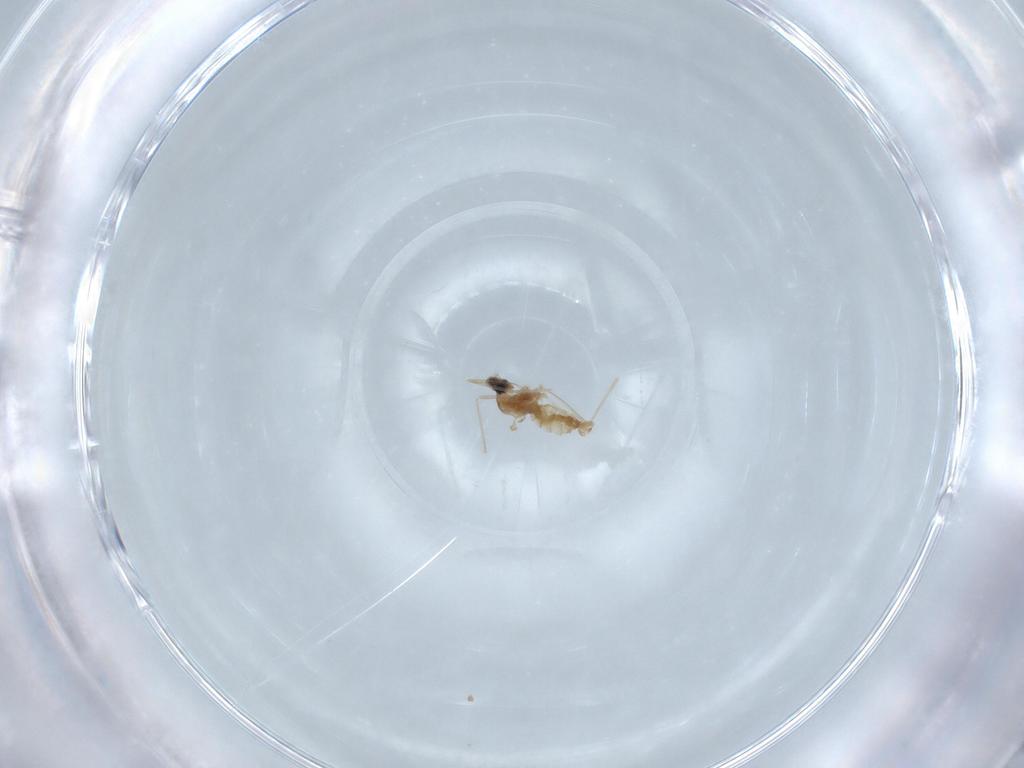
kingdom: Animalia
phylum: Arthropoda
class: Insecta
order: Diptera
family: Cecidomyiidae
